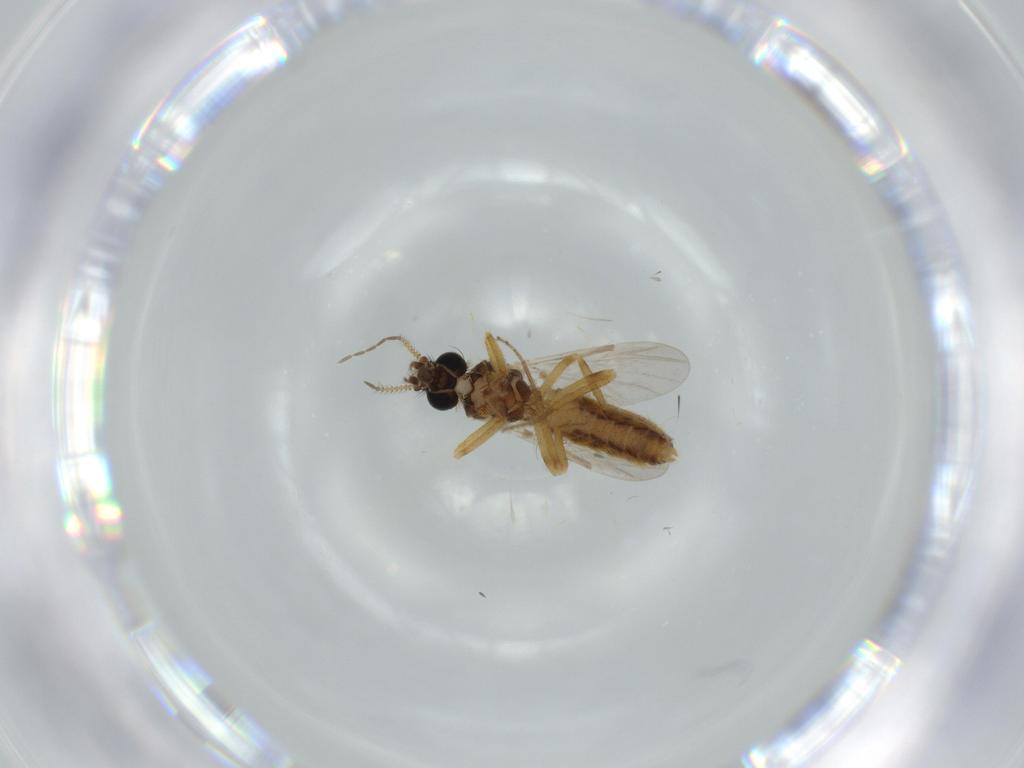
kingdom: Animalia
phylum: Arthropoda
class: Insecta
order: Diptera
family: Ceratopogonidae
